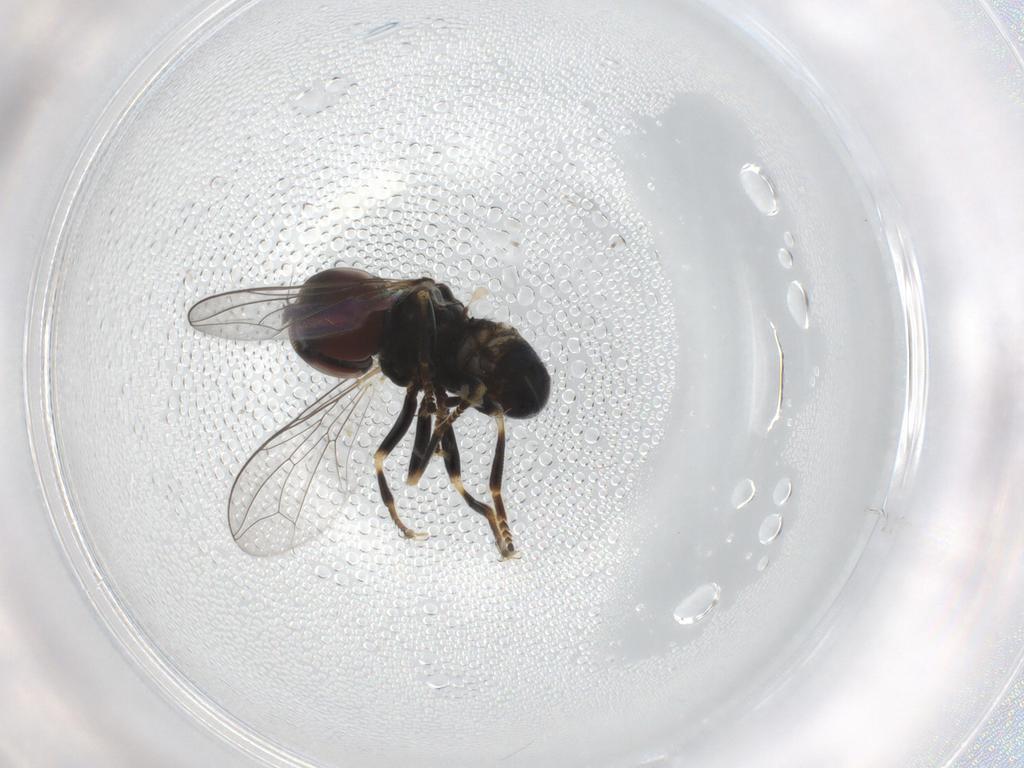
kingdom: Animalia
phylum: Arthropoda
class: Insecta
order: Diptera
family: Pipunculidae
